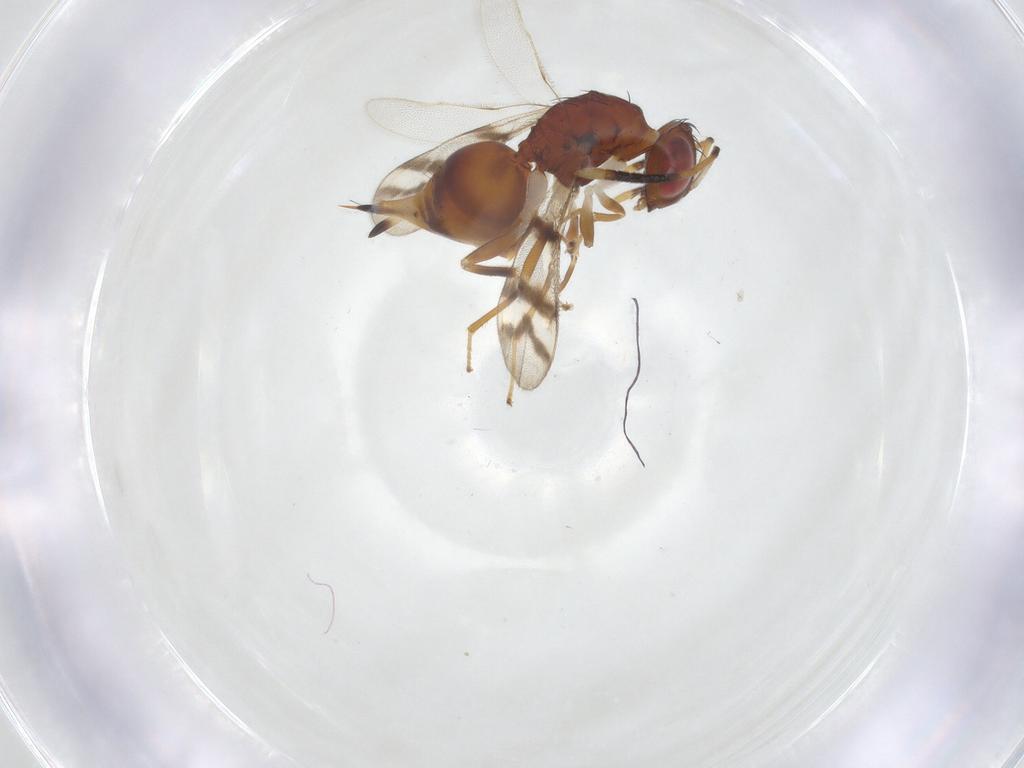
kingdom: Animalia
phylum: Arthropoda
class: Insecta
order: Hymenoptera
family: Diparidae
